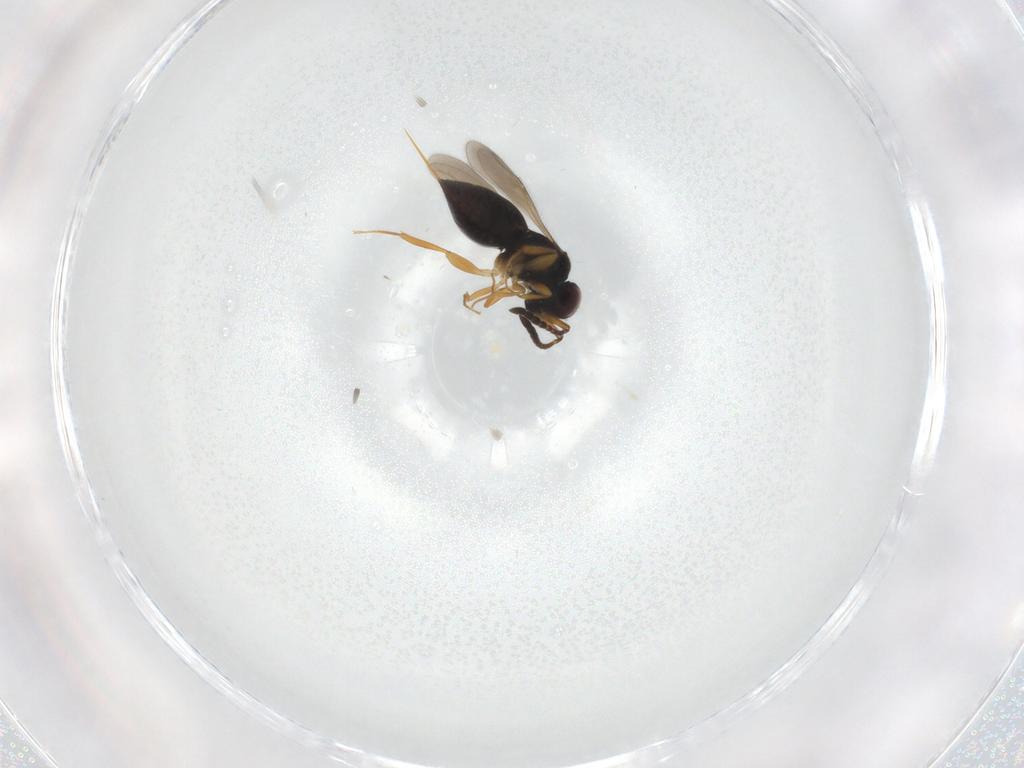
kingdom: Animalia
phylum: Arthropoda
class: Insecta
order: Hymenoptera
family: Ceraphronidae
